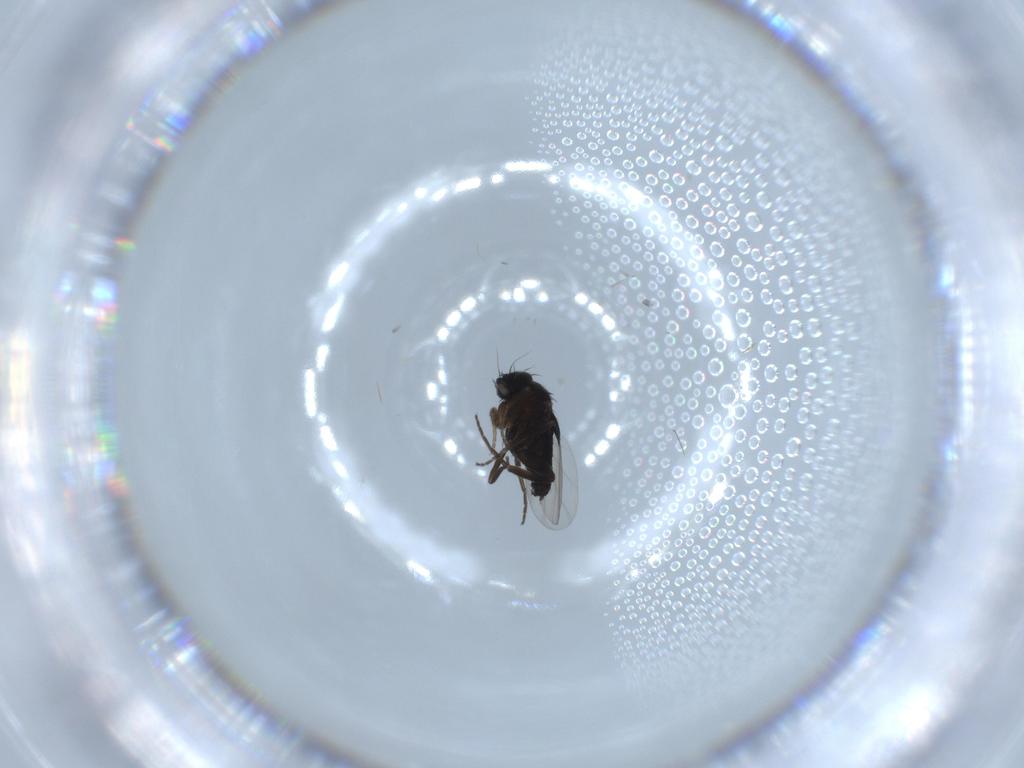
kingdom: Animalia
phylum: Arthropoda
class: Insecta
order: Diptera
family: Phoridae
